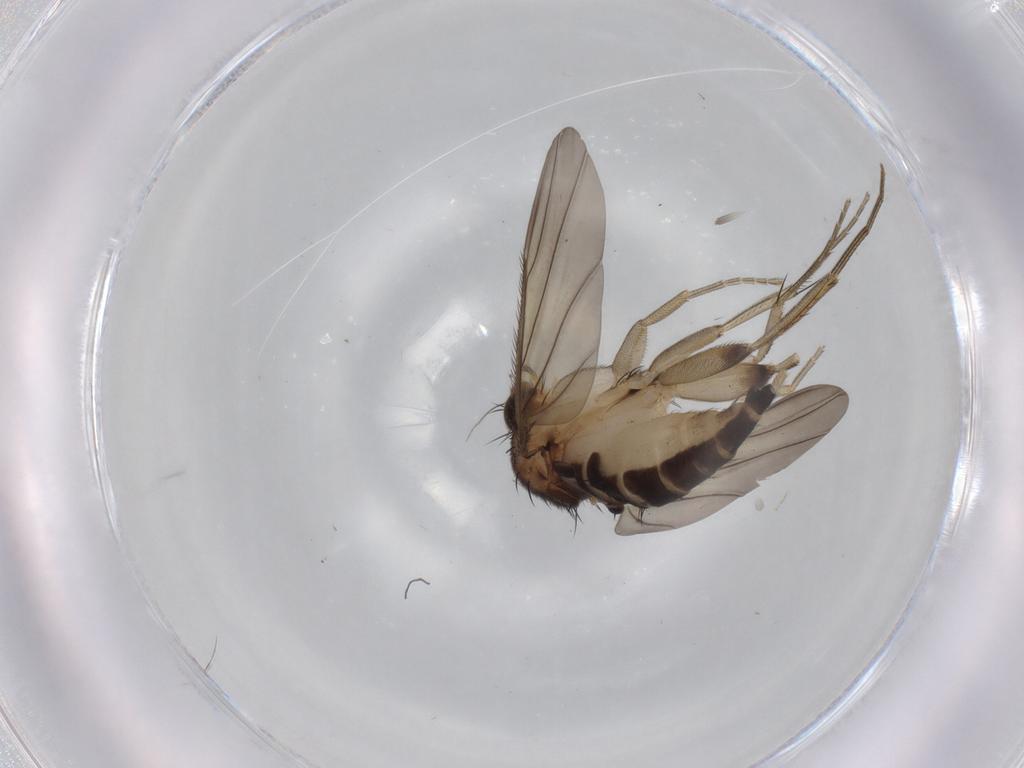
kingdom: Animalia
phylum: Arthropoda
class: Insecta
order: Diptera
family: Phoridae
